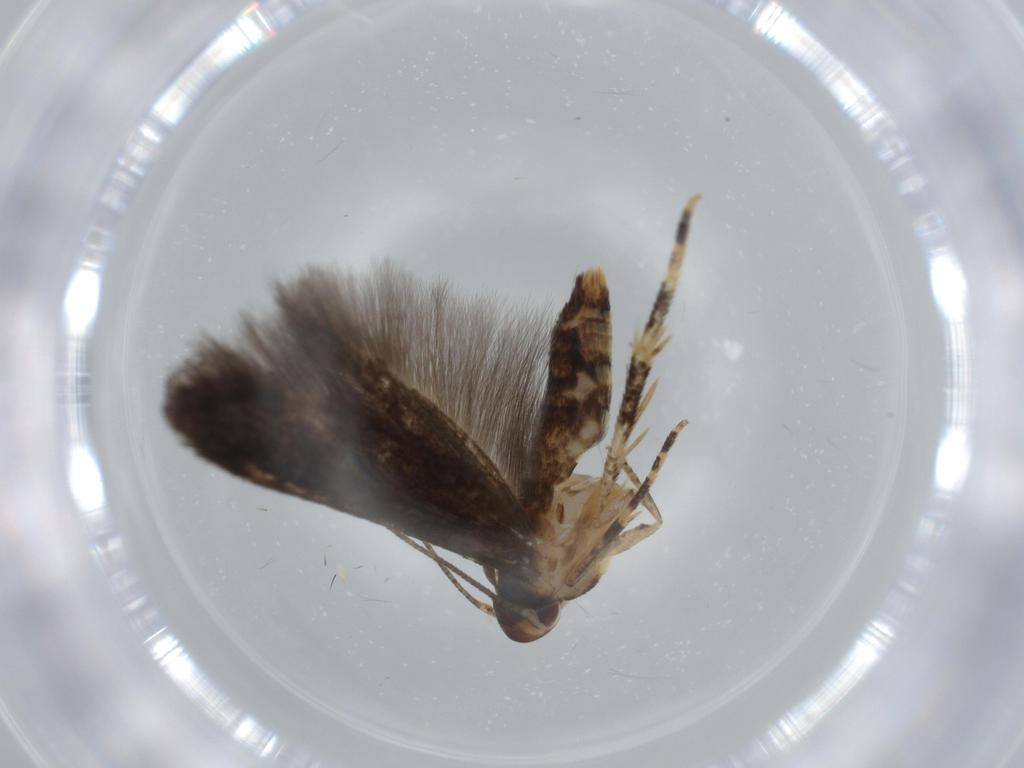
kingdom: Animalia
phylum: Arthropoda
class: Insecta
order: Lepidoptera
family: Momphidae
